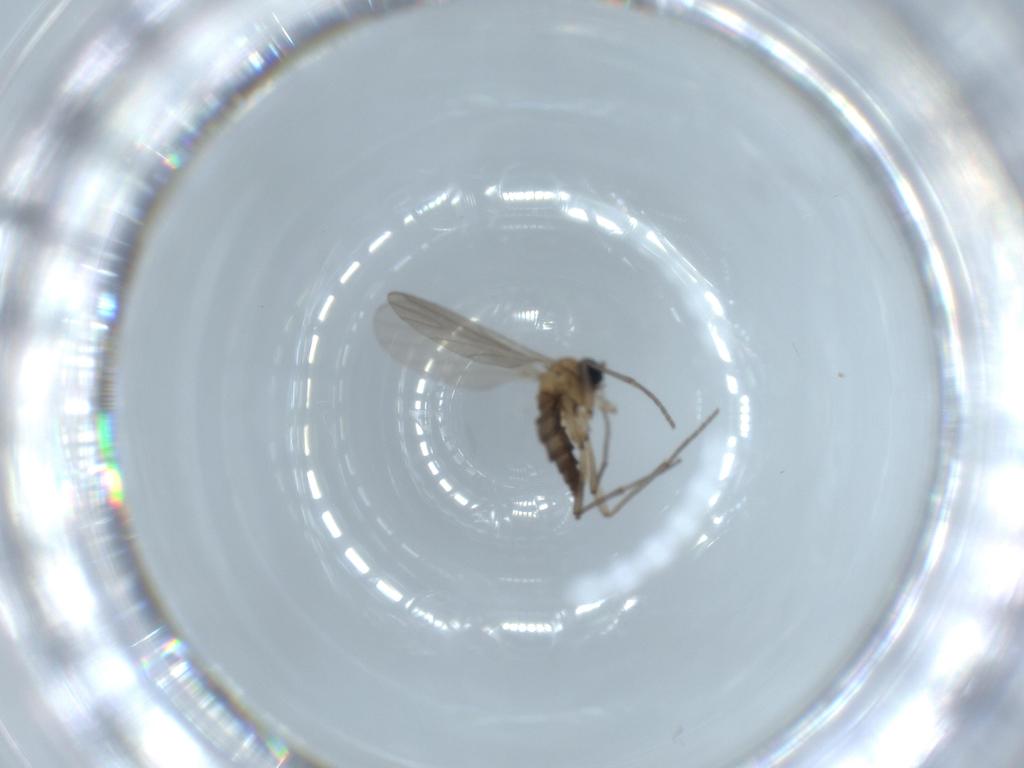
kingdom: Animalia
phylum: Arthropoda
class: Insecta
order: Diptera
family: Sciaridae
